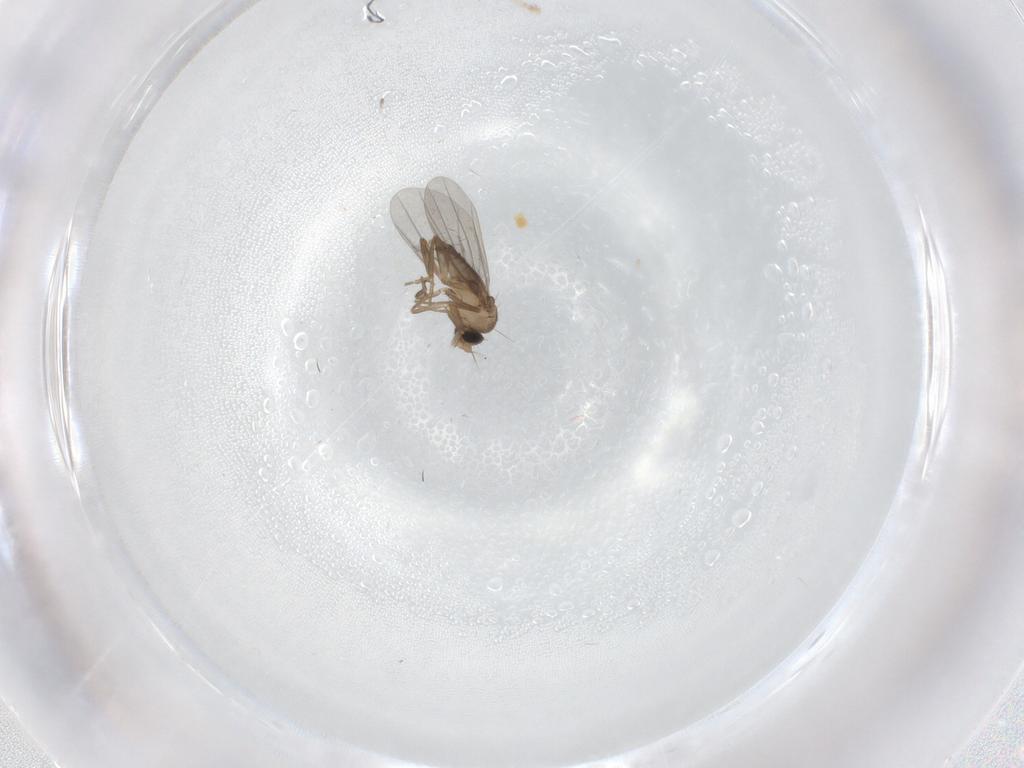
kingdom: Animalia
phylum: Arthropoda
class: Insecta
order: Diptera
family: Sciaridae
